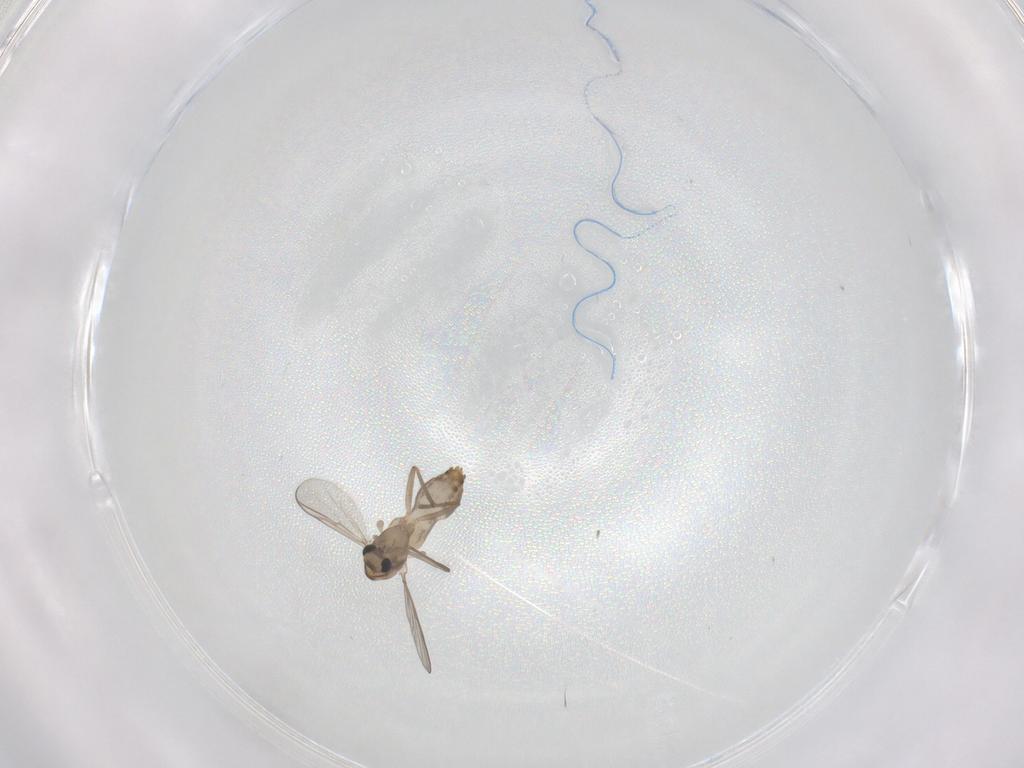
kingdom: Animalia
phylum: Arthropoda
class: Insecta
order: Diptera
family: Chironomidae
